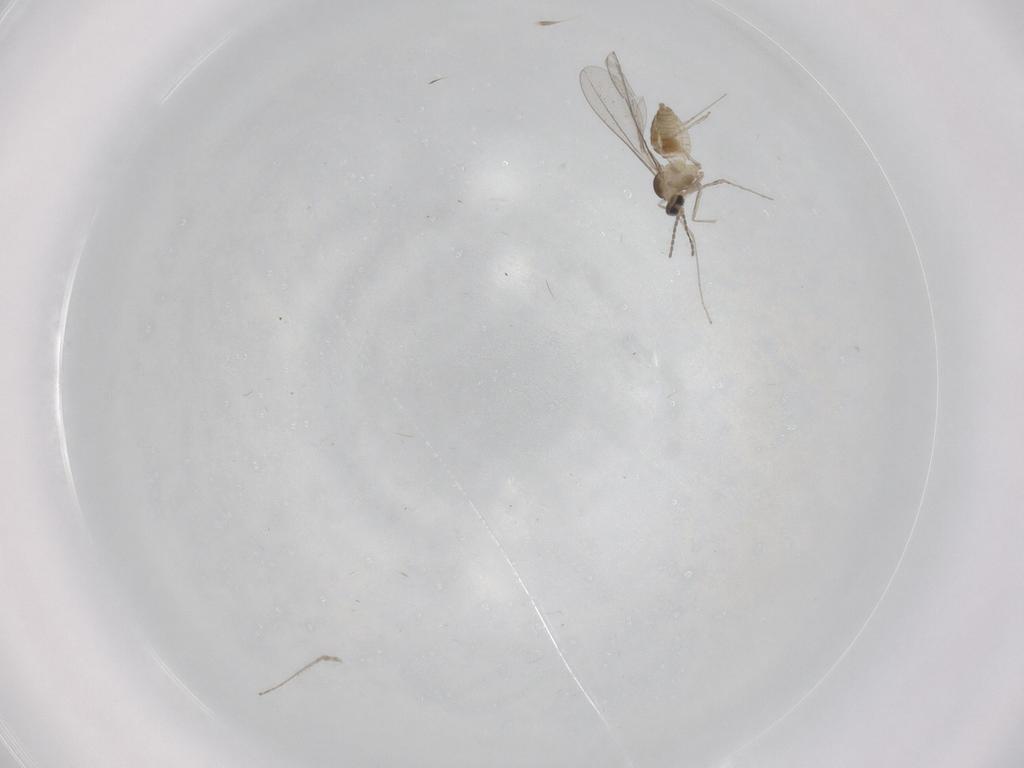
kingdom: Animalia
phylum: Arthropoda
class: Insecta
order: Diptera
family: Cecidomyiidae
